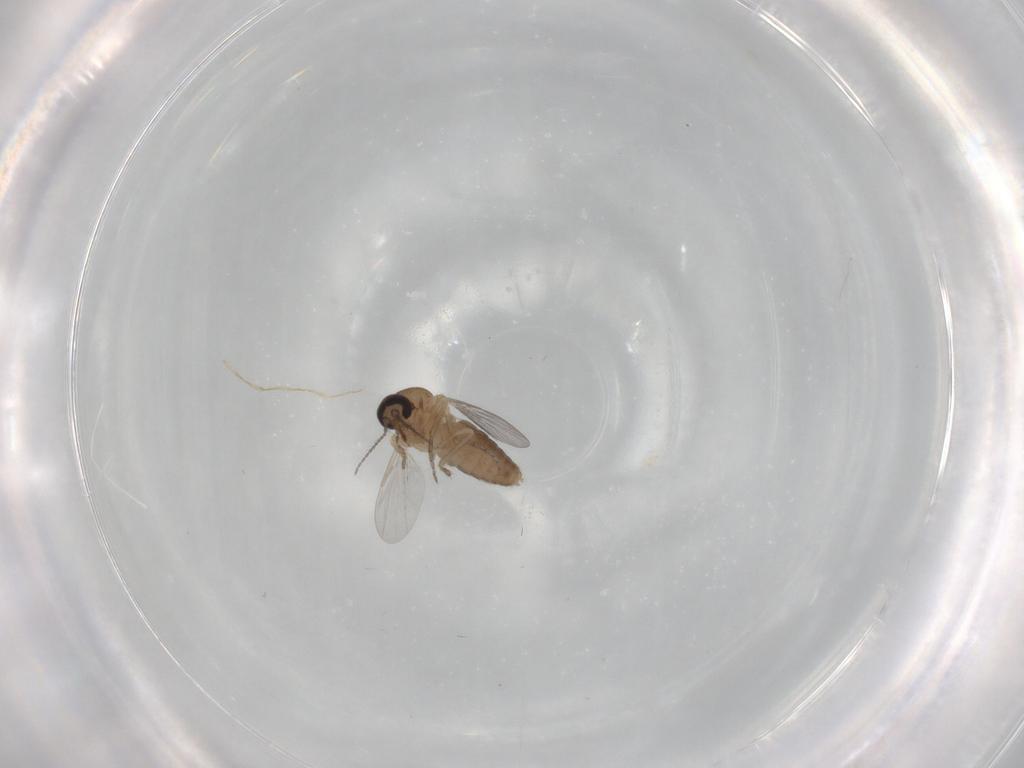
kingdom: Animalia
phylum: Arthropoda
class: Insecta
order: Diptera
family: Ceratopogonidae
